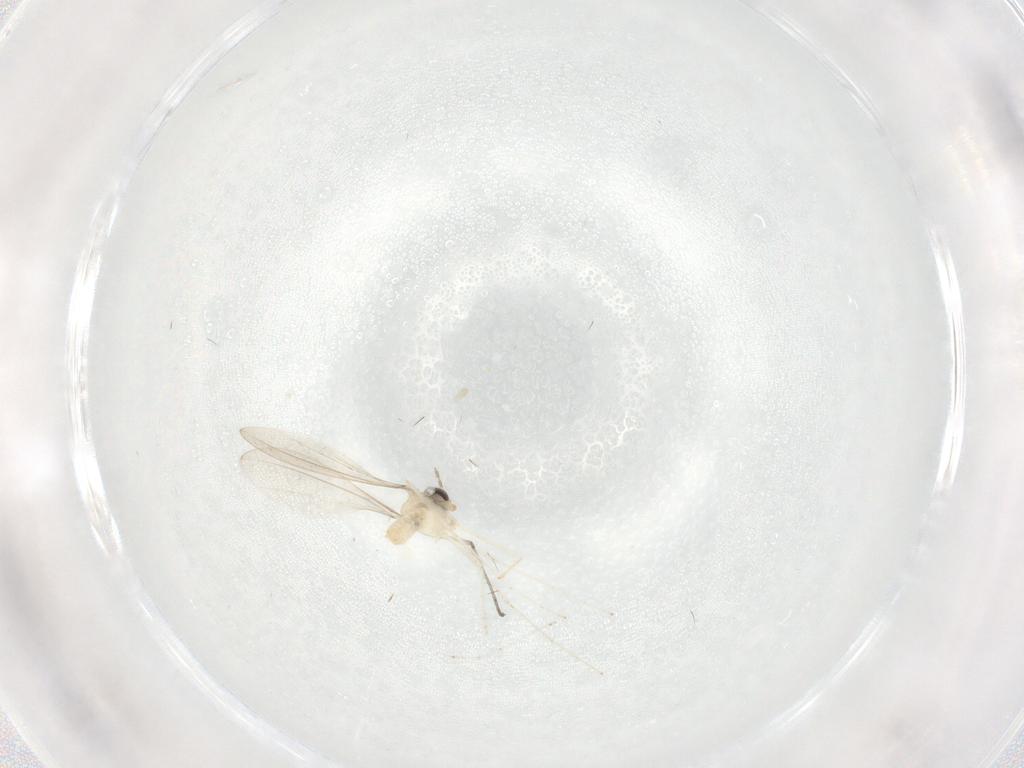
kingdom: Animalia
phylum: Arthropoda
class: Insecta
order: Diptera
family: Cecidomyiidae
